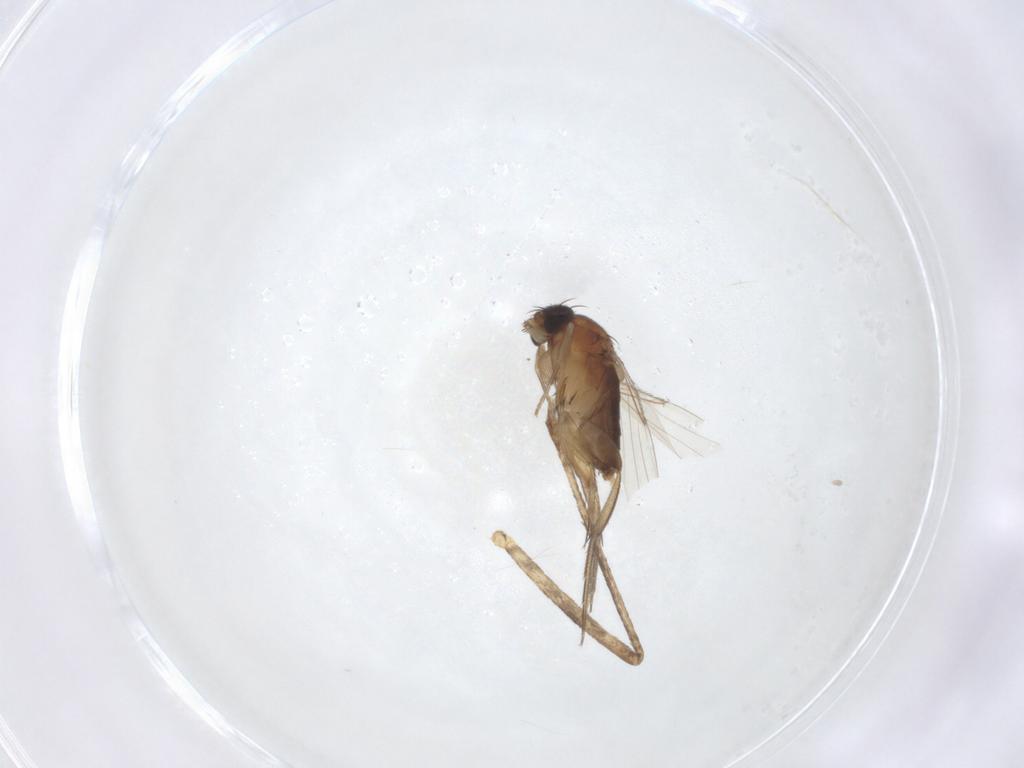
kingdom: Animalia
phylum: Arthropoda
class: Insecta
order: Diptera
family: Phoridae
